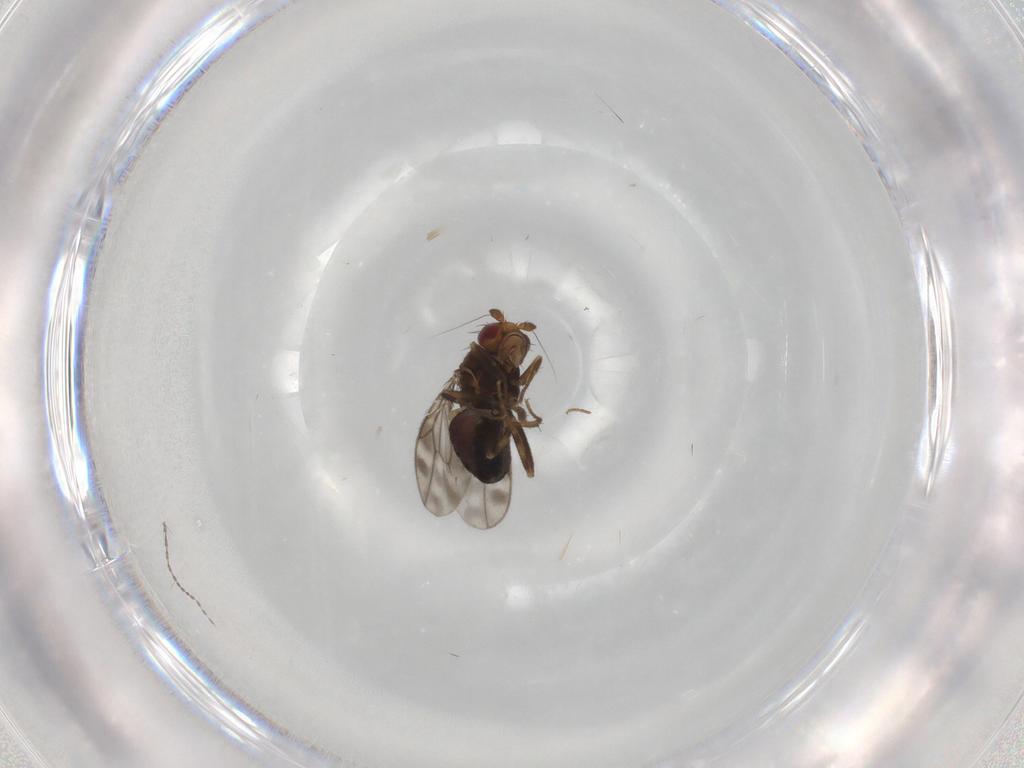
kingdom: Animalia
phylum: Arthropoda
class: Insecta
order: Diptera
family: Cecidomyiidae
